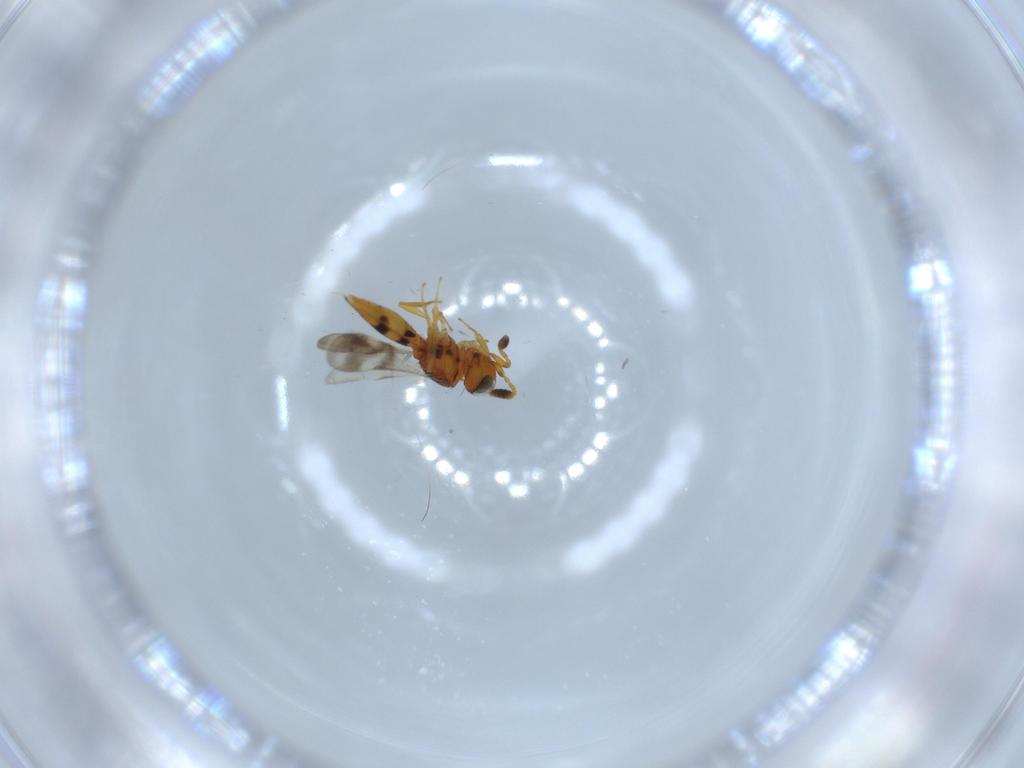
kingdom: Animalia
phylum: Arthropoda
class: Insecta
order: Hymenoptera
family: Scelionidae
